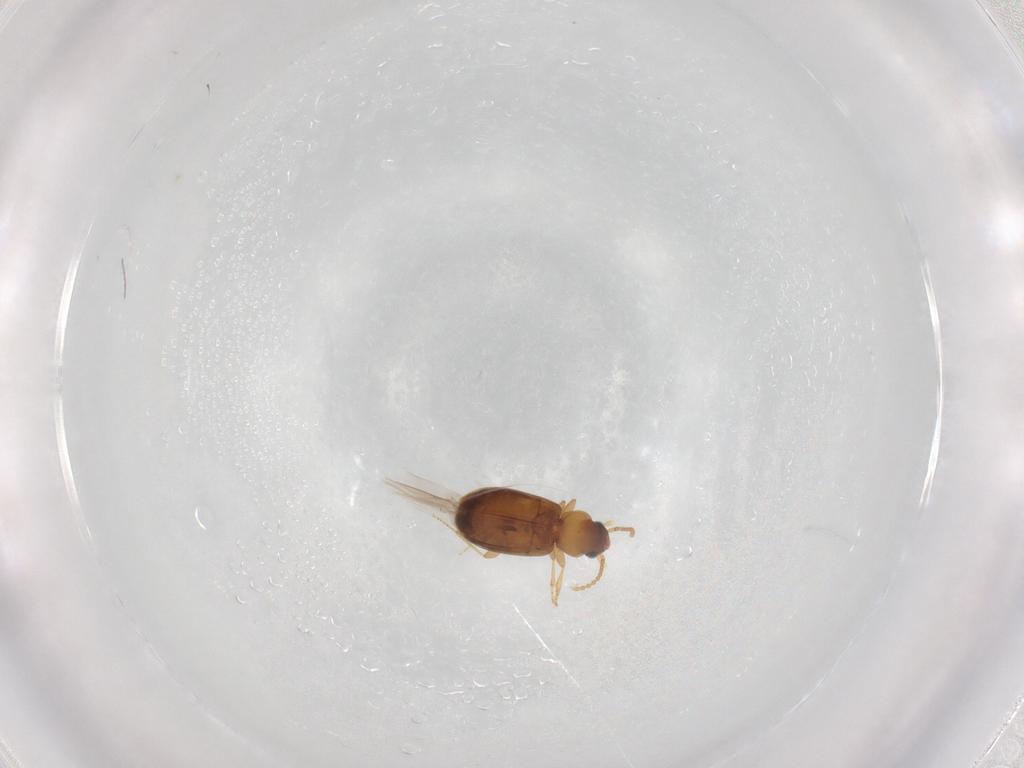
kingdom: Animalia
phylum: Arthropoda
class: Insecta
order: Coleoptera
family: Carabidae
